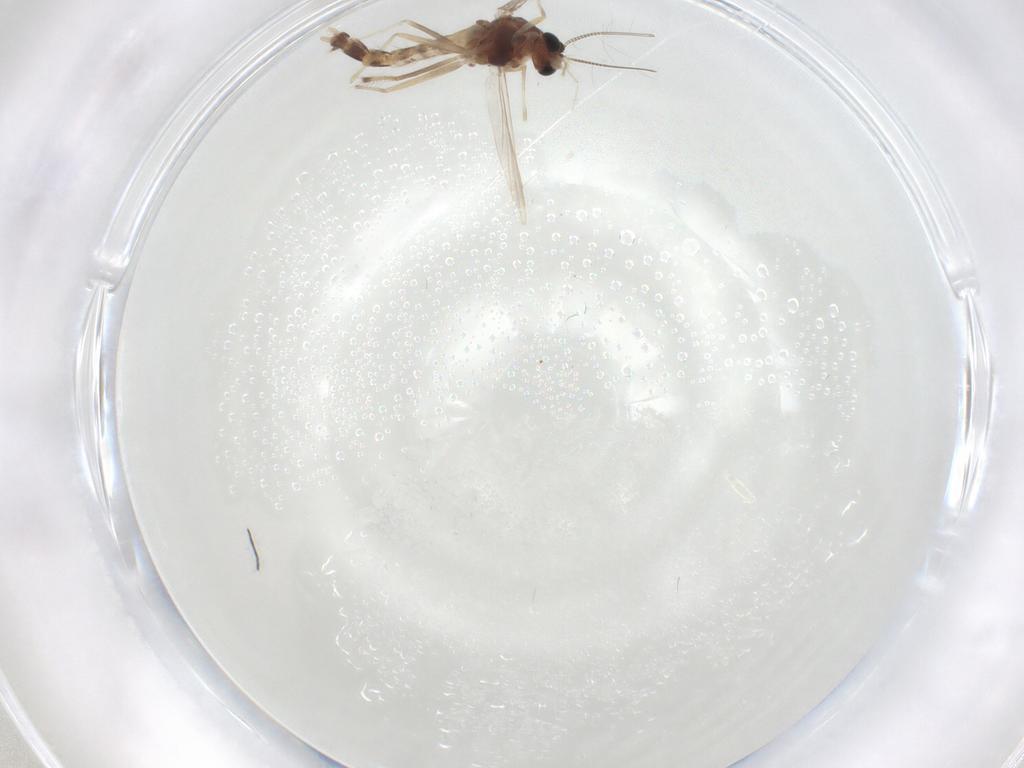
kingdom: Animalia
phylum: Arthropoda
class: Insecta
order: Diptera
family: Chironomidae
